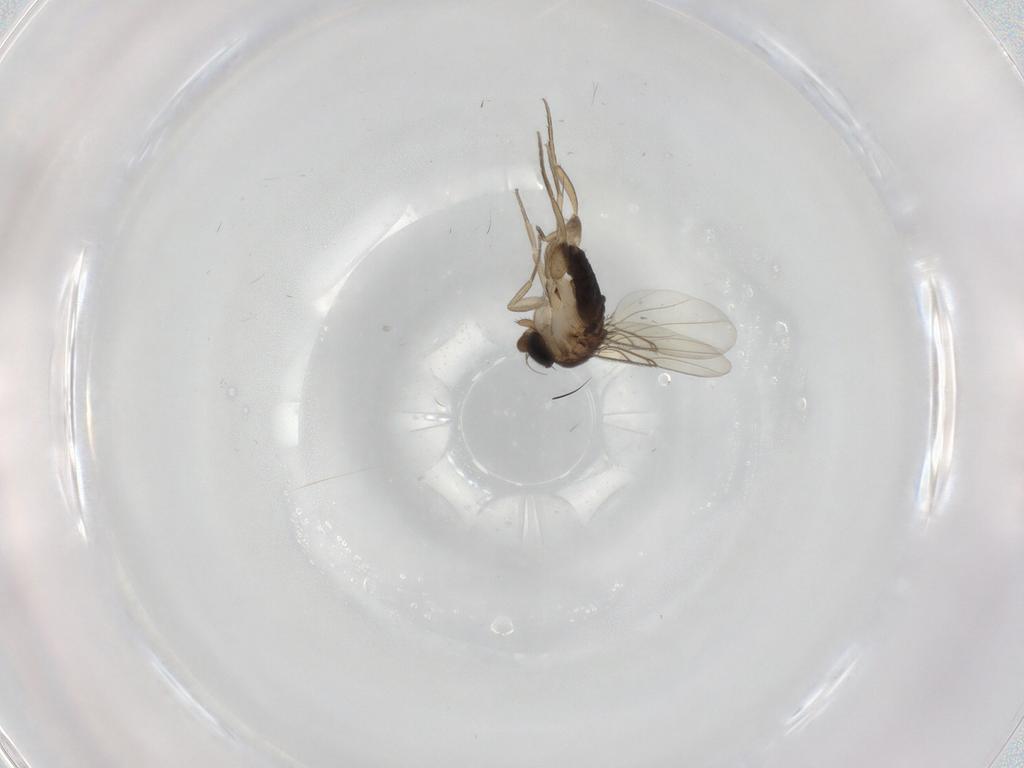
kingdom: Animalia
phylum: Arthropoda
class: Insecta
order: Diptera
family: Phoridae
